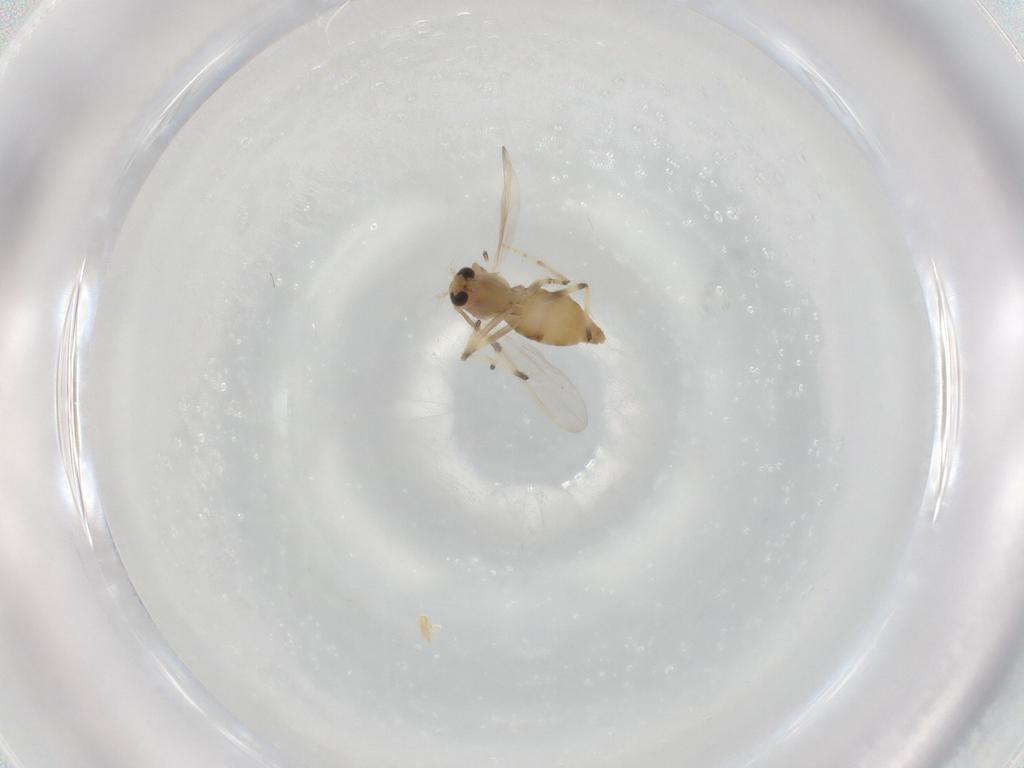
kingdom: Animalia
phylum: Arthropoda
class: Insecta
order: Diptera
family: Chironomidae
